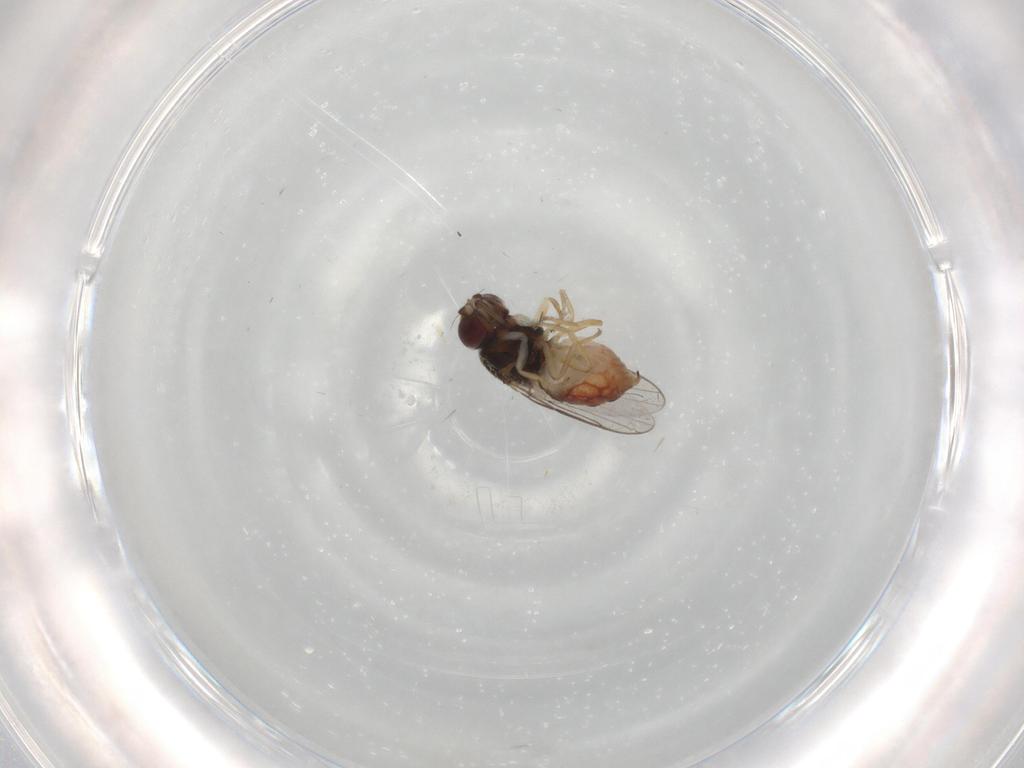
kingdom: Animalia
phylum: Arthropoda
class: Insecta
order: Diptera
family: Chloropidae
